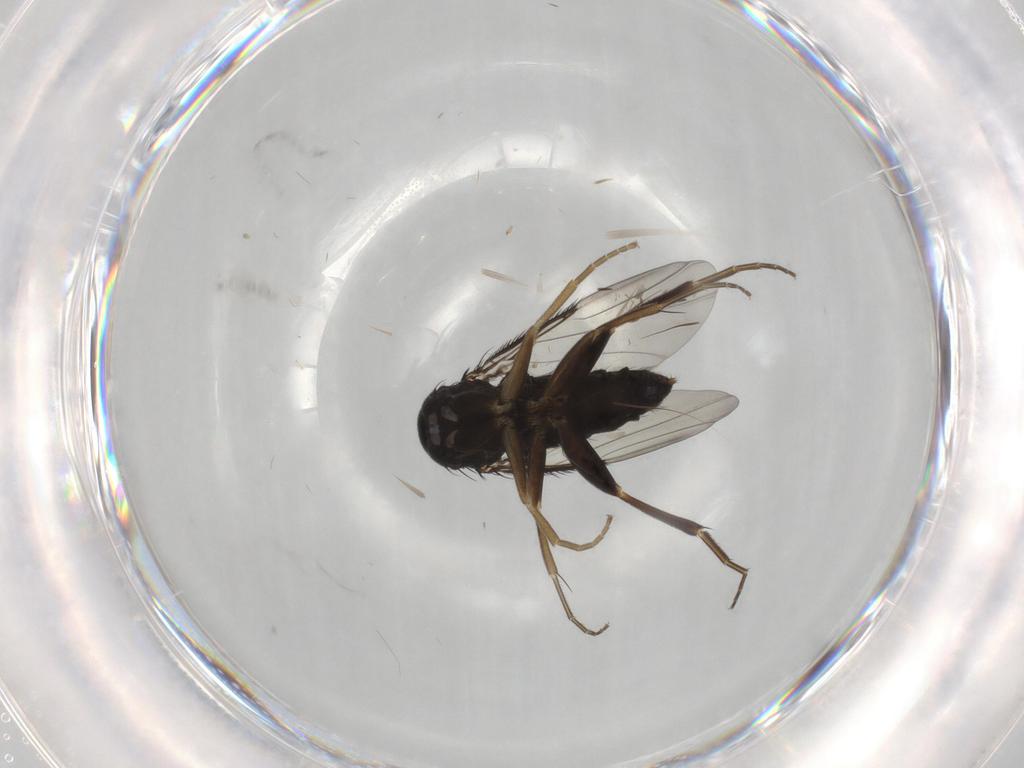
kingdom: Animalia
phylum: Arthropoda
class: Insecta
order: Diptera
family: Phoridae
